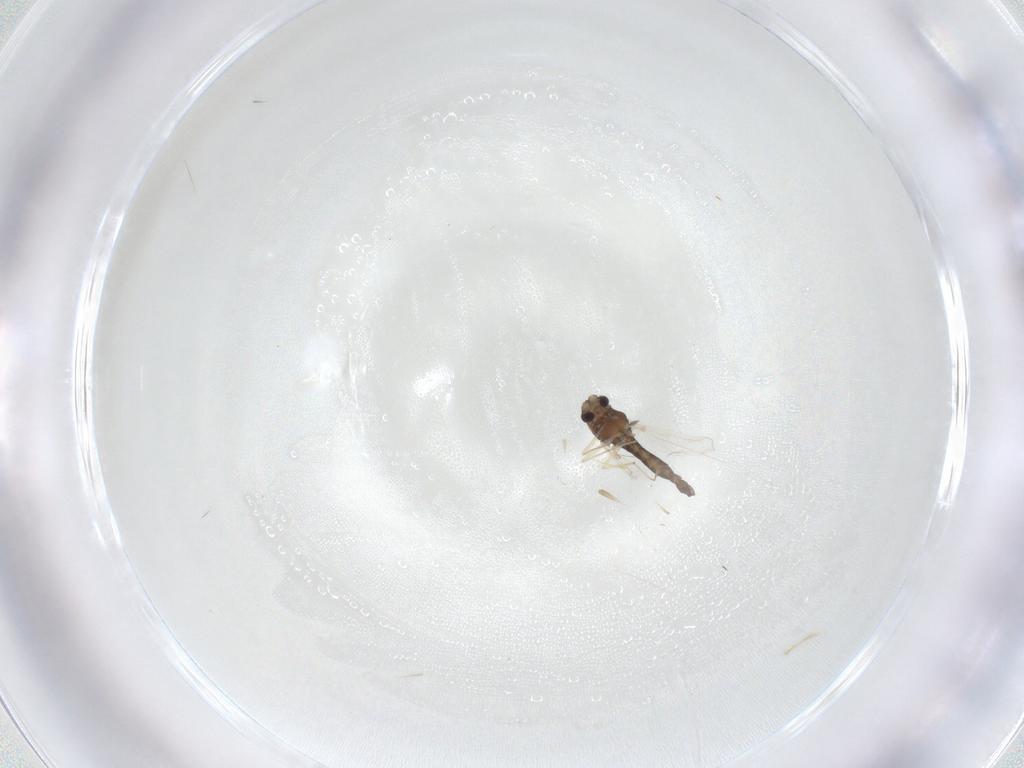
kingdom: Animalia
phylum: Arthropoda
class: Insecta
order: Diptera
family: Chironomidae
